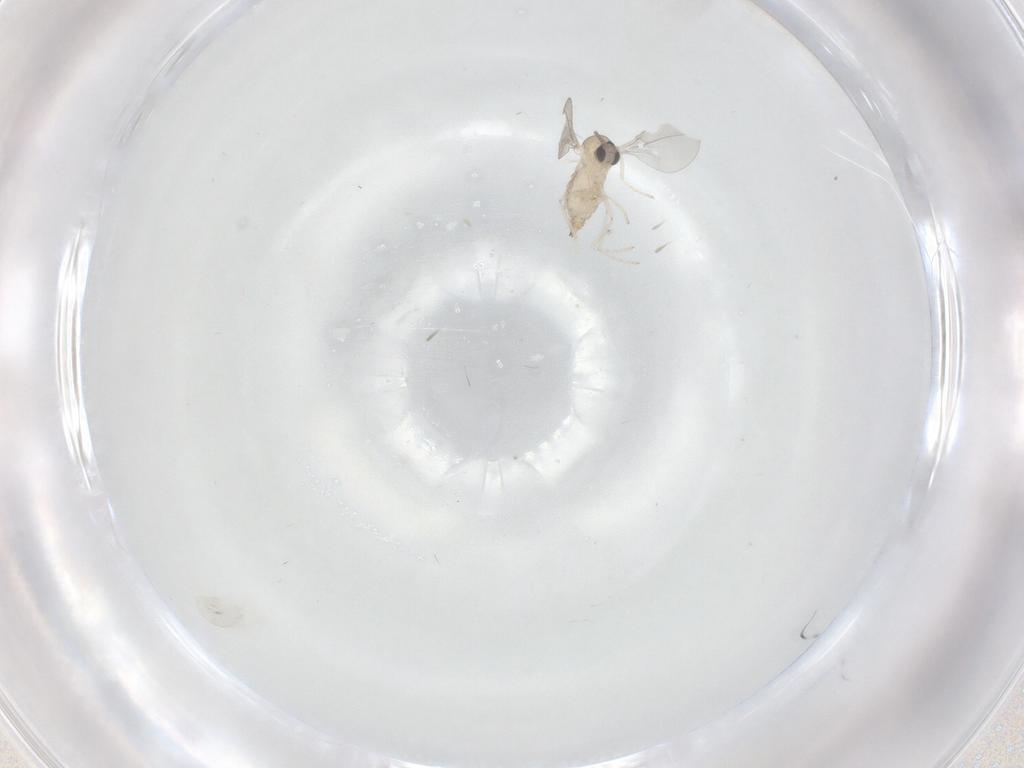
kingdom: Animalia
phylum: Arthropoda
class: Insecta
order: Diptera
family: Cecidomyiidae
